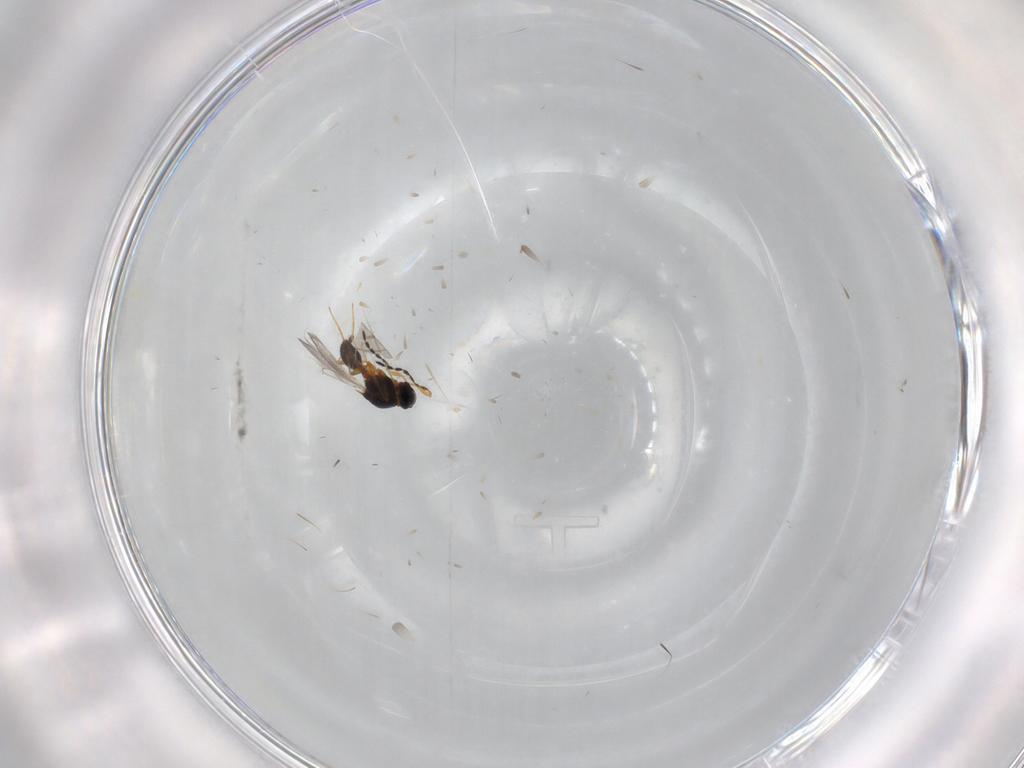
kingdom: Animalia
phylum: Arthropoda
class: Insecta
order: Hymenoptera
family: Platygastridae
